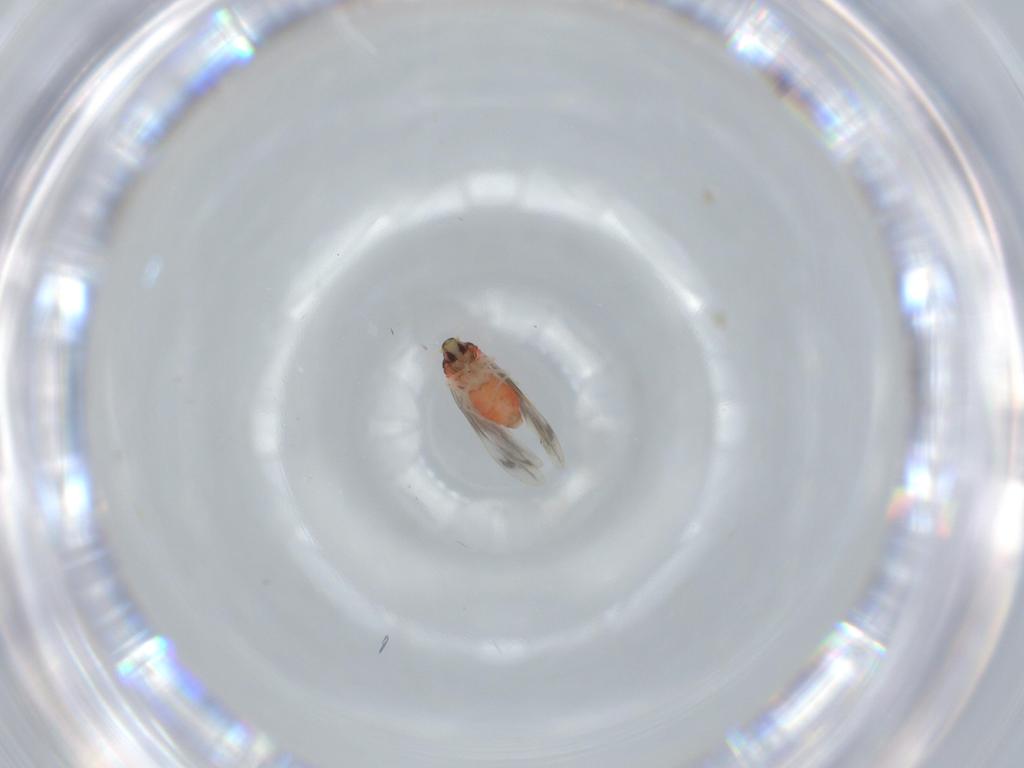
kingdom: Animalia
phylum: Arthropoda
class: Insecta
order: Hemiptera
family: Aleyrodidae
